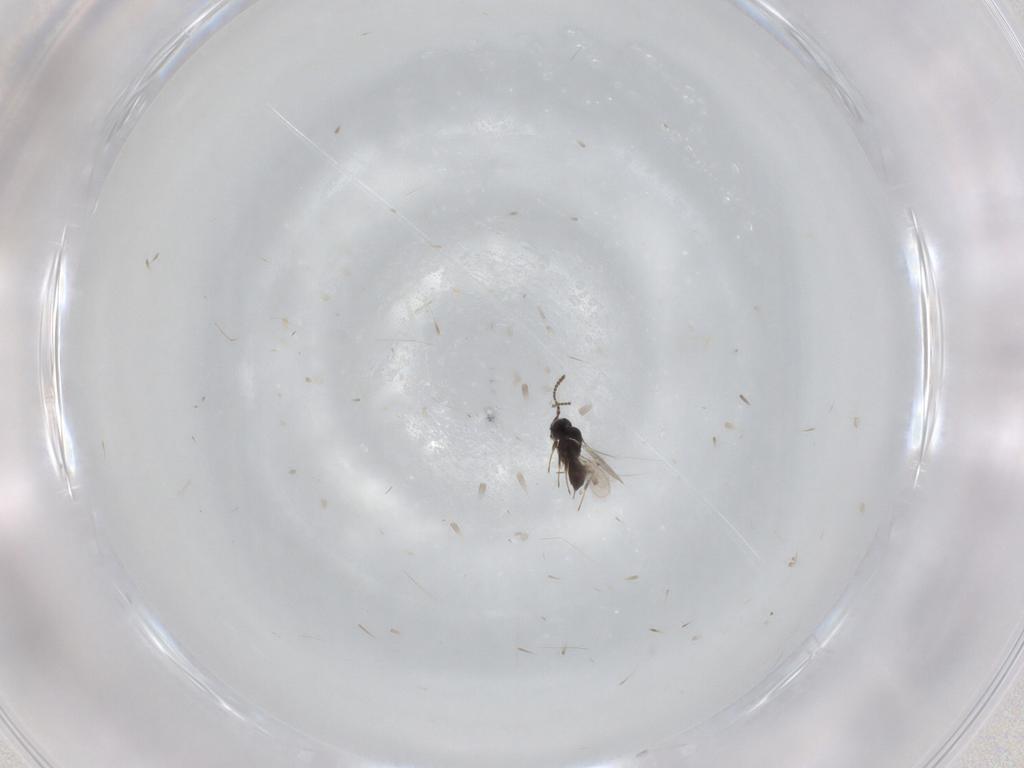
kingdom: Animalia
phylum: Arthropoda
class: Insecta
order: Hymenoptera
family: Scelionidae
